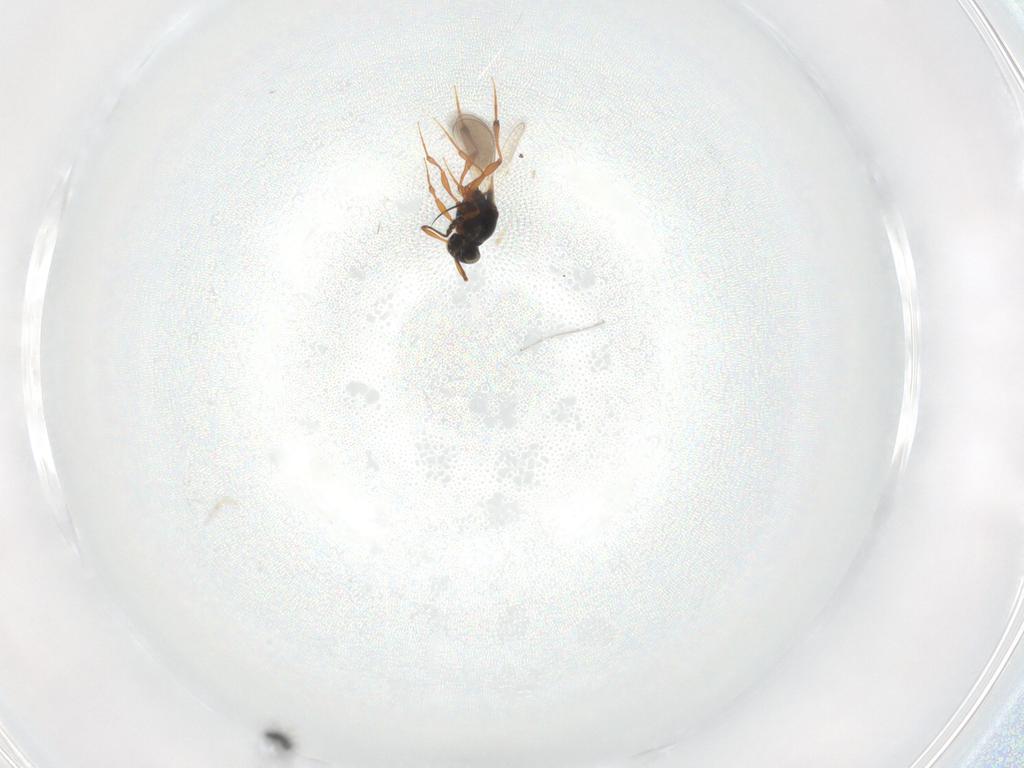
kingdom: Animalia
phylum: Arthropoda
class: Insecta
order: Hymenoptera
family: Platygastridae
